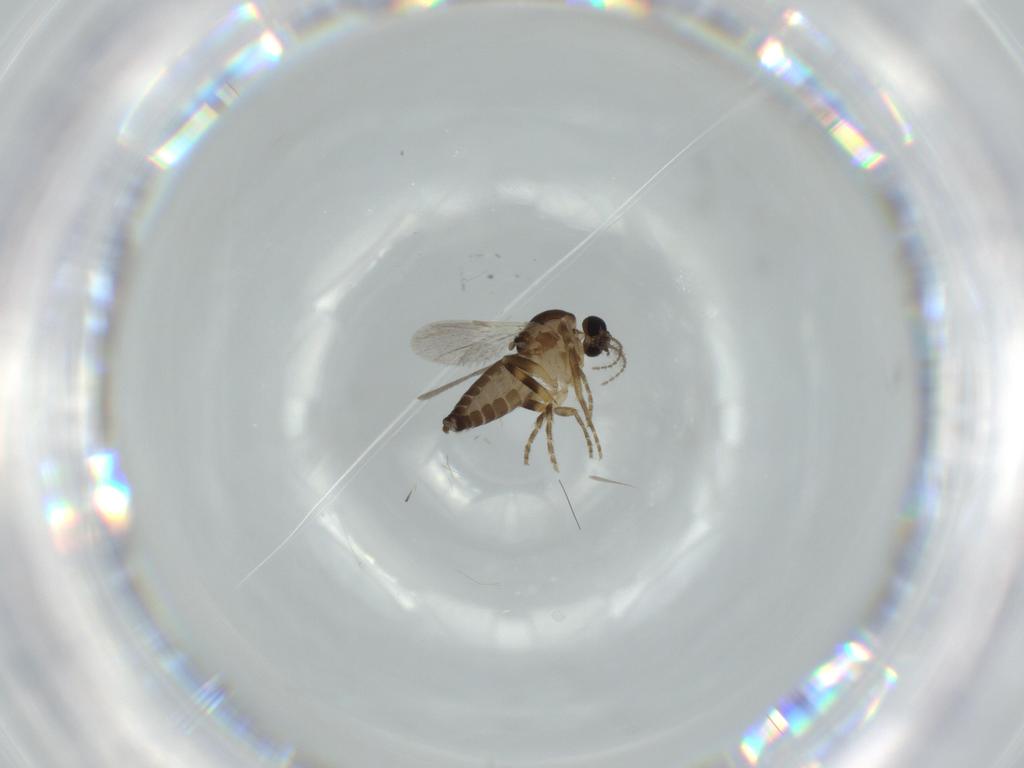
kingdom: Animalia
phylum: Arthropoda
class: Insecta
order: Diptera
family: Ceratopogonidae
